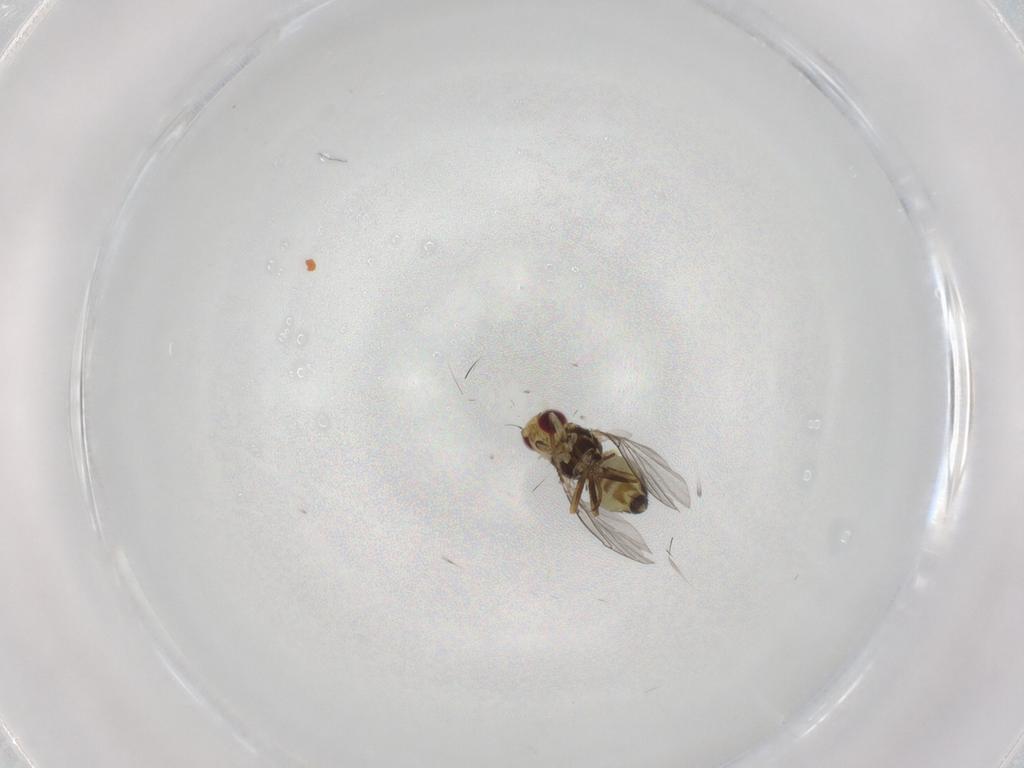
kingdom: Animalia
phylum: Arthropoda
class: Insecta
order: Diptera
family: Agromyzidae
